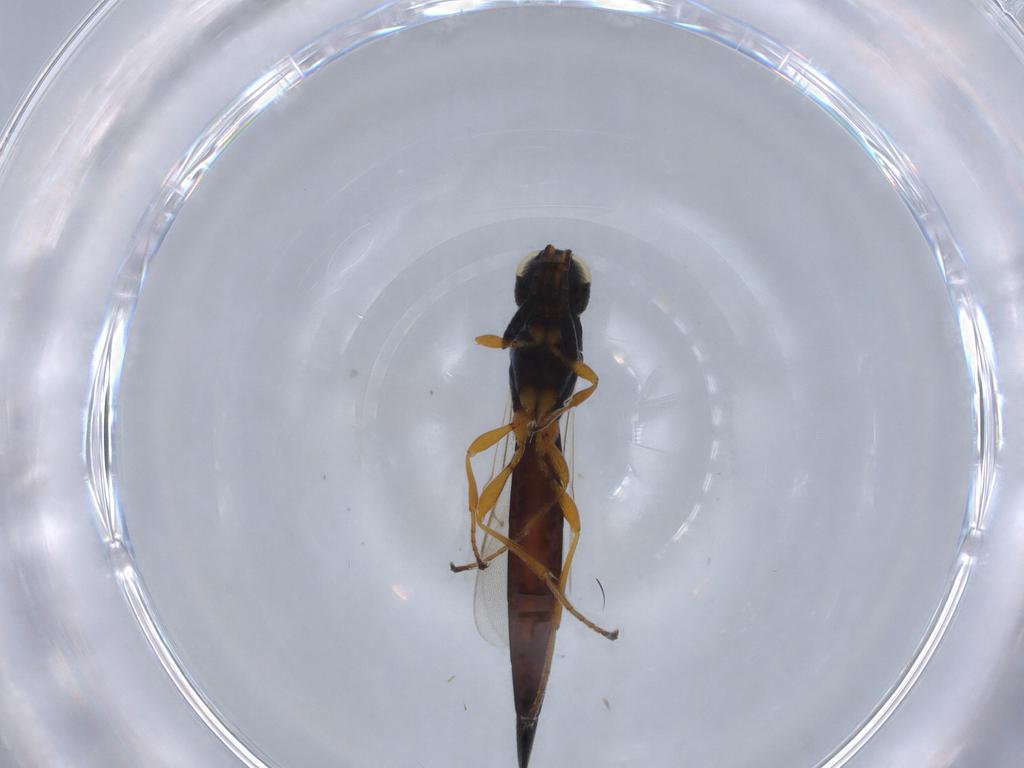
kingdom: Animalia
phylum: Arthropoda
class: Insecta
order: Hymenoptera
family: Scelionidae
